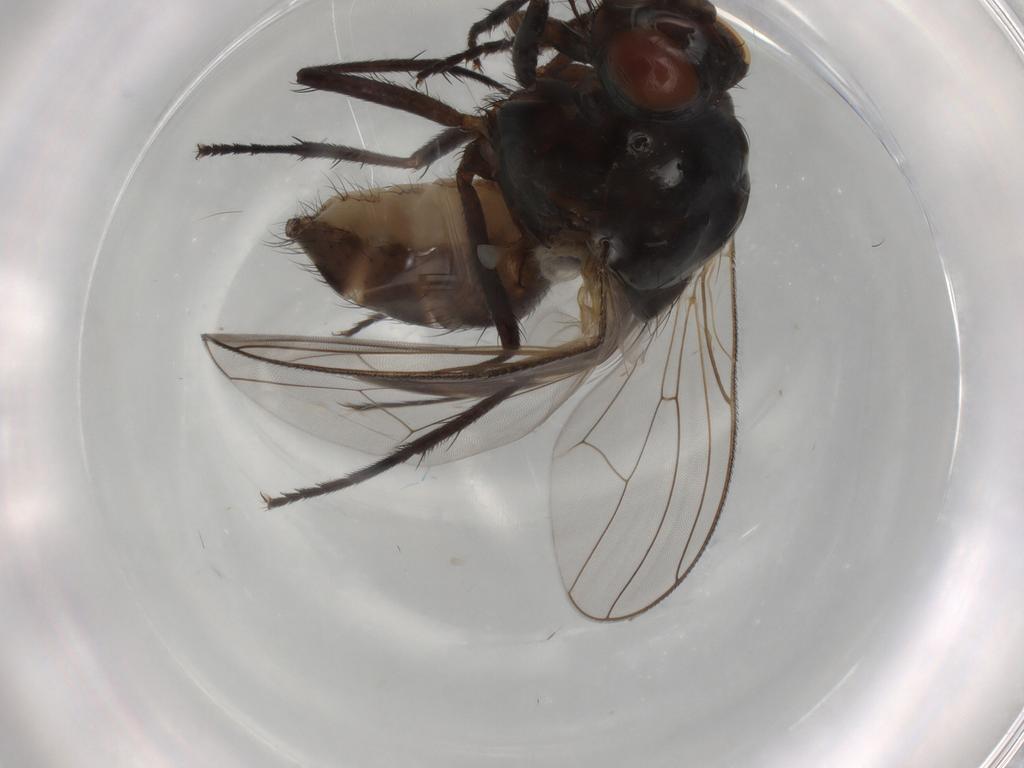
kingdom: Animalia
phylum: Arthropoda
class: Insecta
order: Diptera
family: Anthomyiidae
